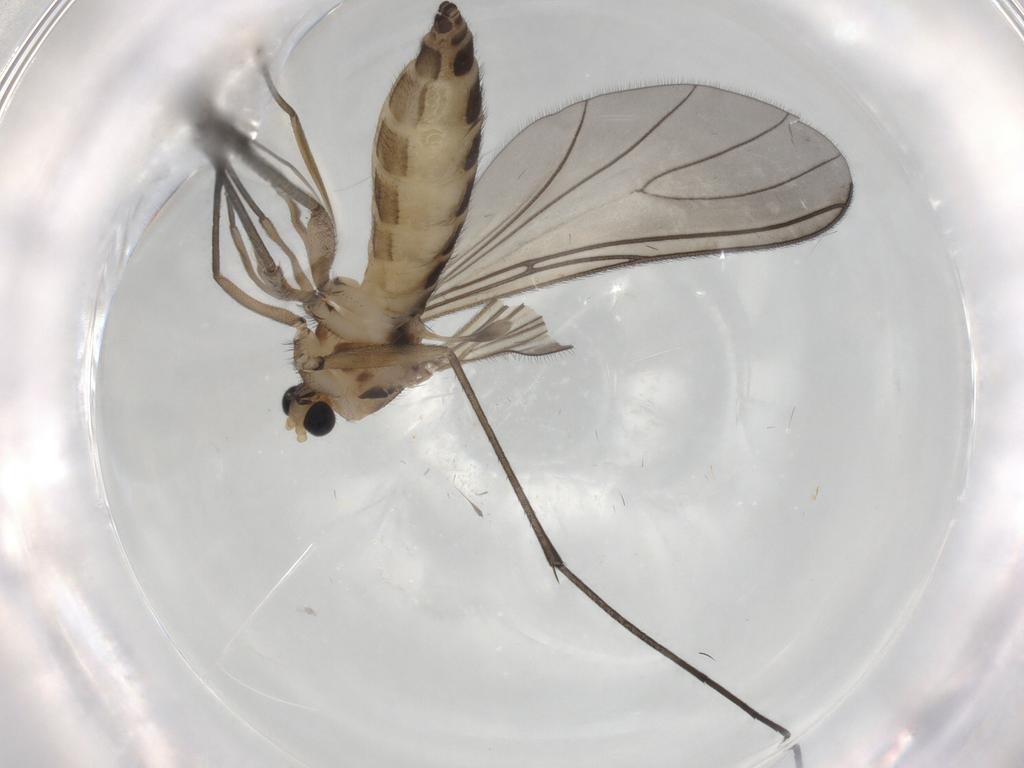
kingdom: Animalia
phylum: Arthropoda
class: Insecta
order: Diptera
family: Sciaridae
